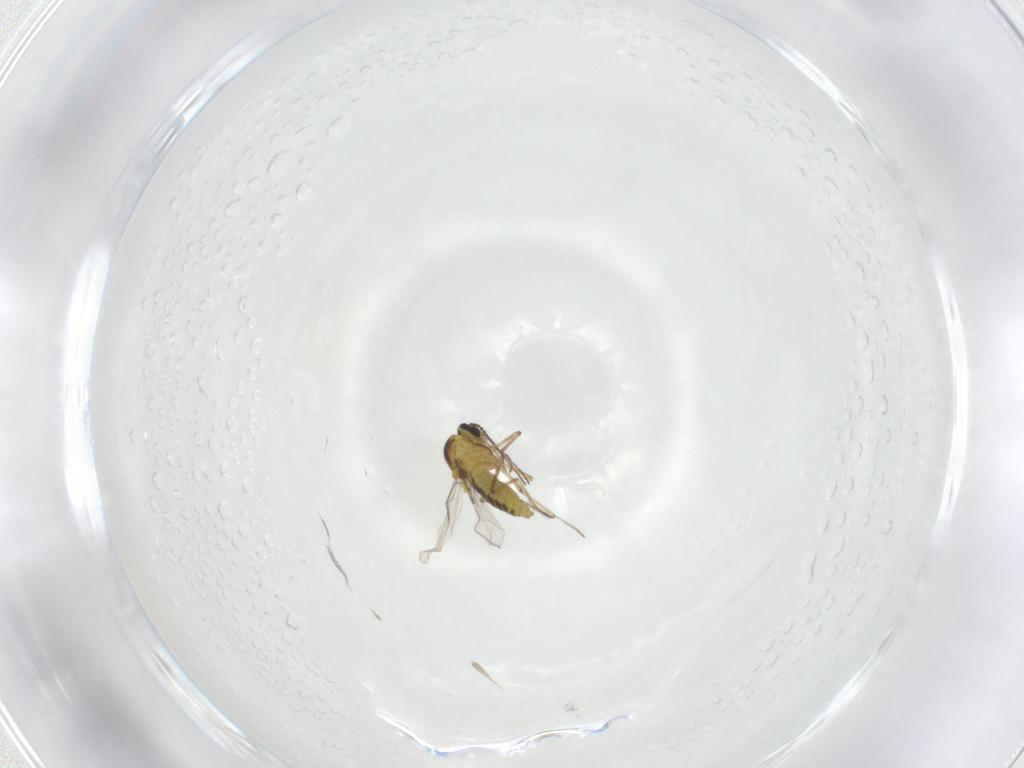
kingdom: Animalia
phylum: Arthropoda
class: Insecta
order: Diptera
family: Ceratopogonidae
